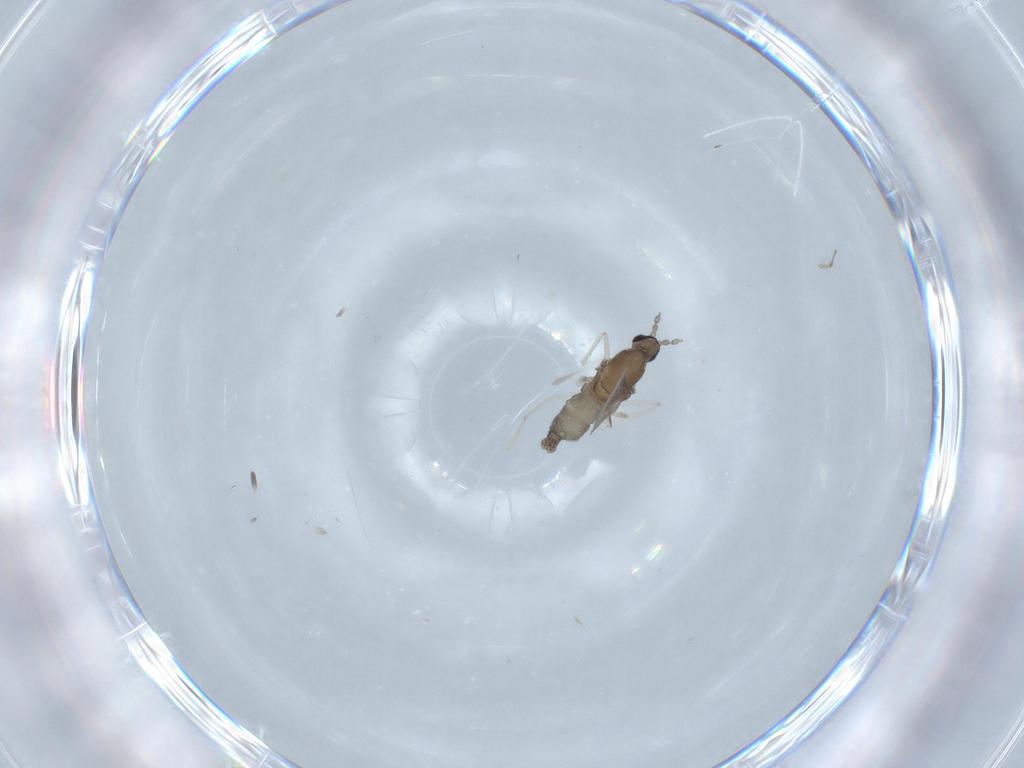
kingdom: Animalia
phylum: Arthropoda
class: Insecta
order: Diptera
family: Cecidomyiidae
